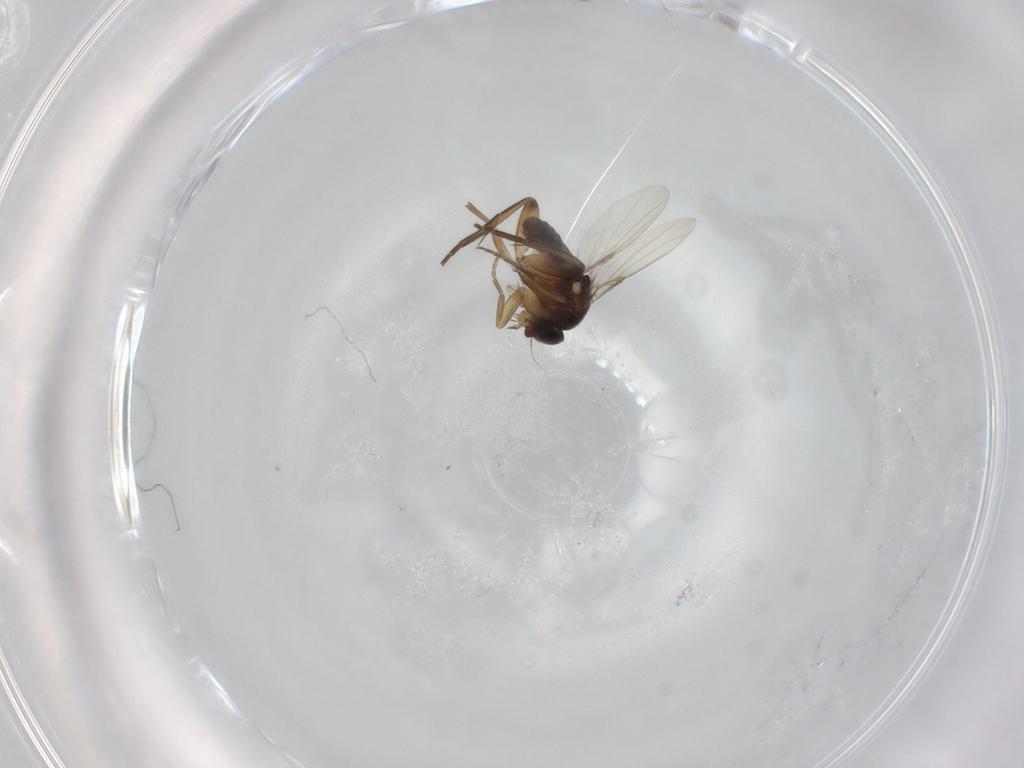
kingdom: Animalia
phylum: Arthropoda
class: Insecta
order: Diptera
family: Phoridae
